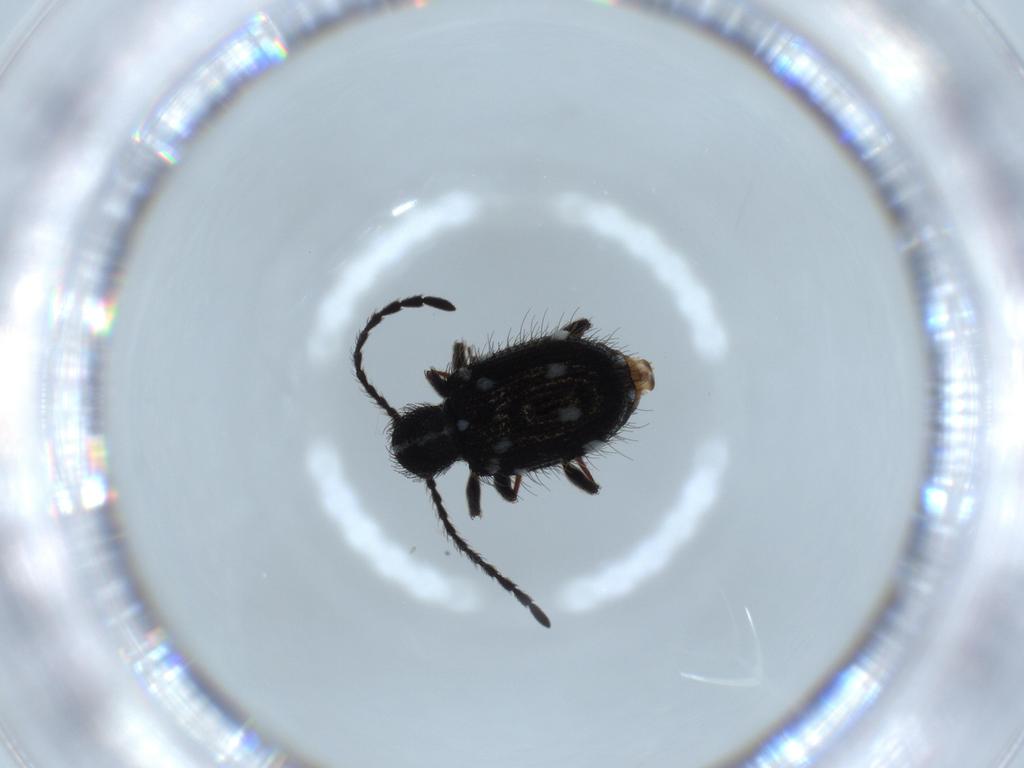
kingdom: Animalia
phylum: Arthropoda
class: Insecta
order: Coleoptera
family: Ptinidae
